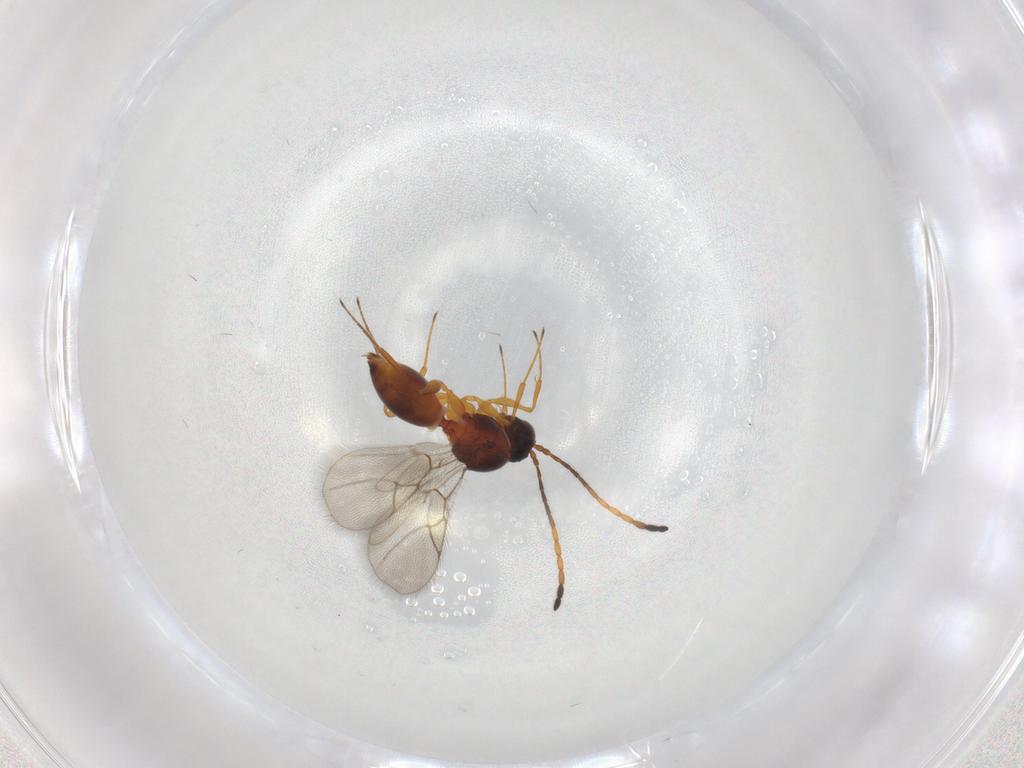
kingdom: Animalia
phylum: Arthropoda
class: Insecta
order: Hymenoptera
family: Figitidae
